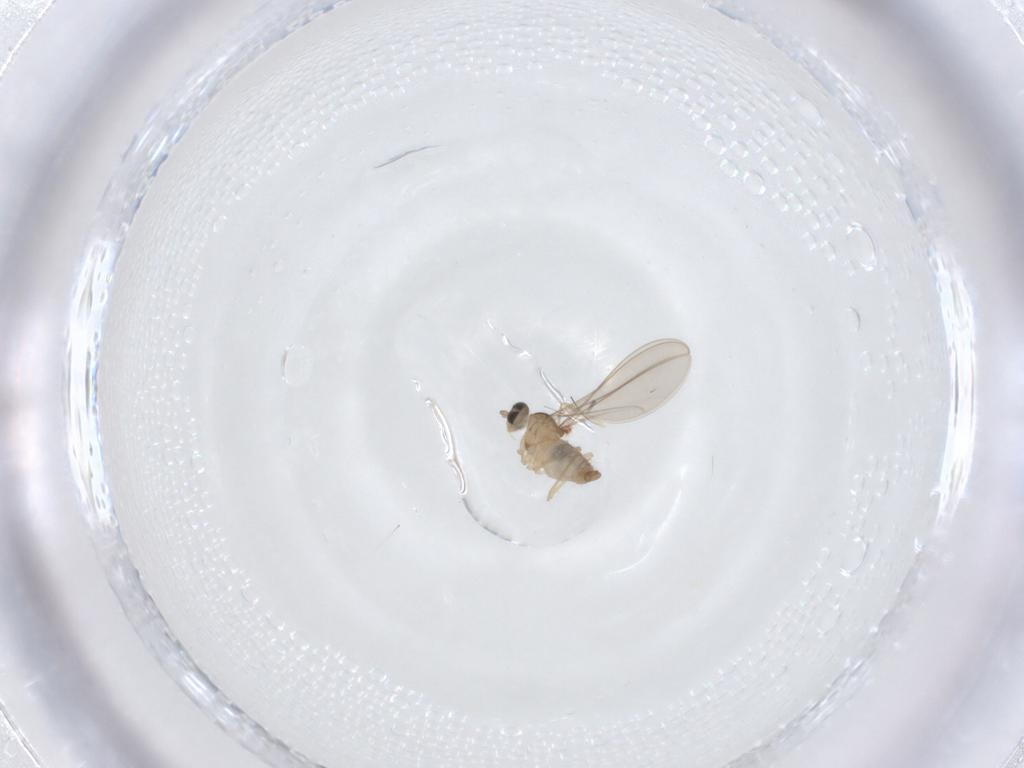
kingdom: Animalia
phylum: Arthropoda
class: Insecta
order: Diptera
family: Cecidomyiidae
